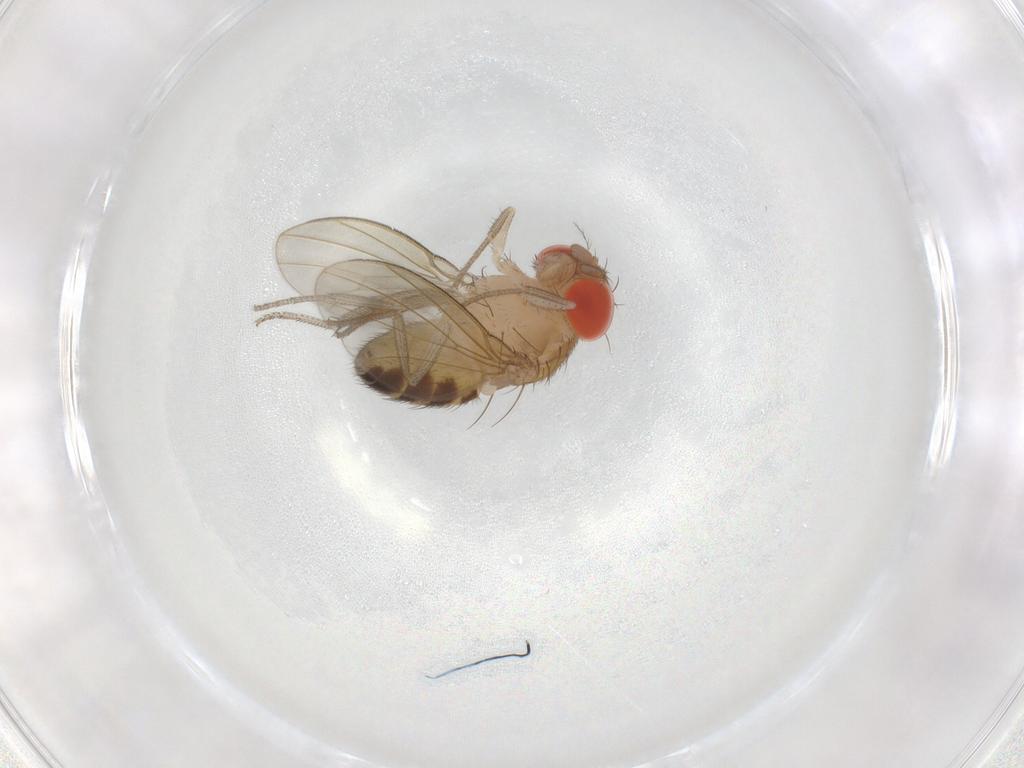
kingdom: Animalia
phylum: Arthropoda
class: Insecta
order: Diptera
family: Drosophilidae
